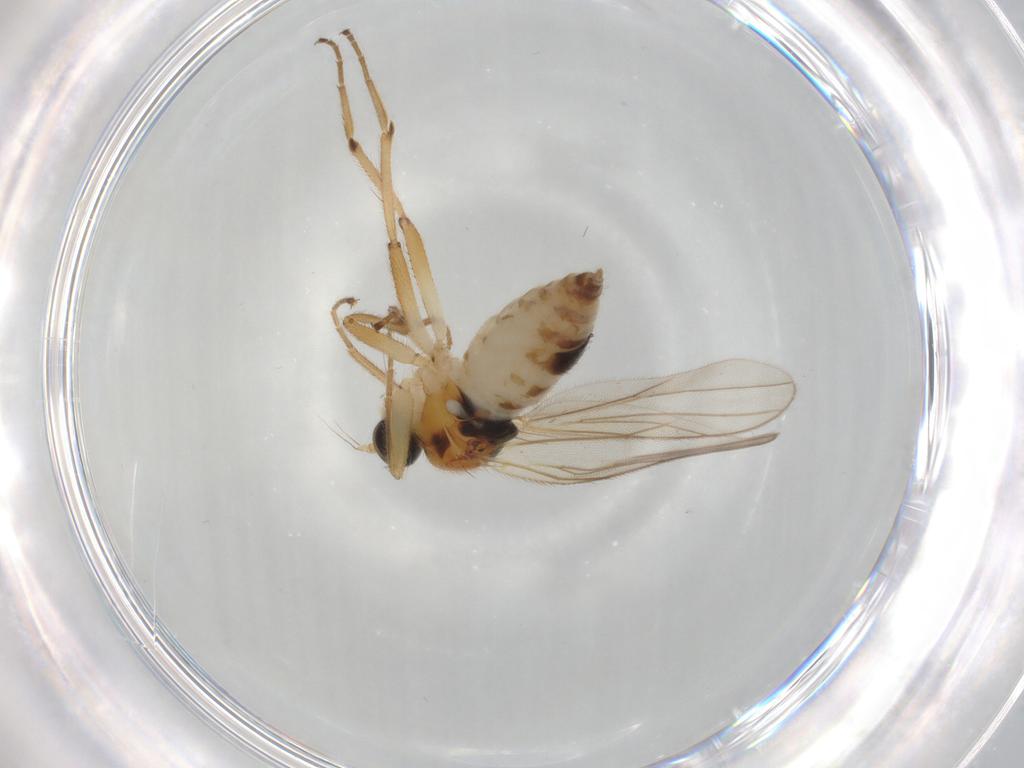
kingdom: Animalia
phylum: Arthropoda
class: Insecta
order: Diptera
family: Hybotidae
